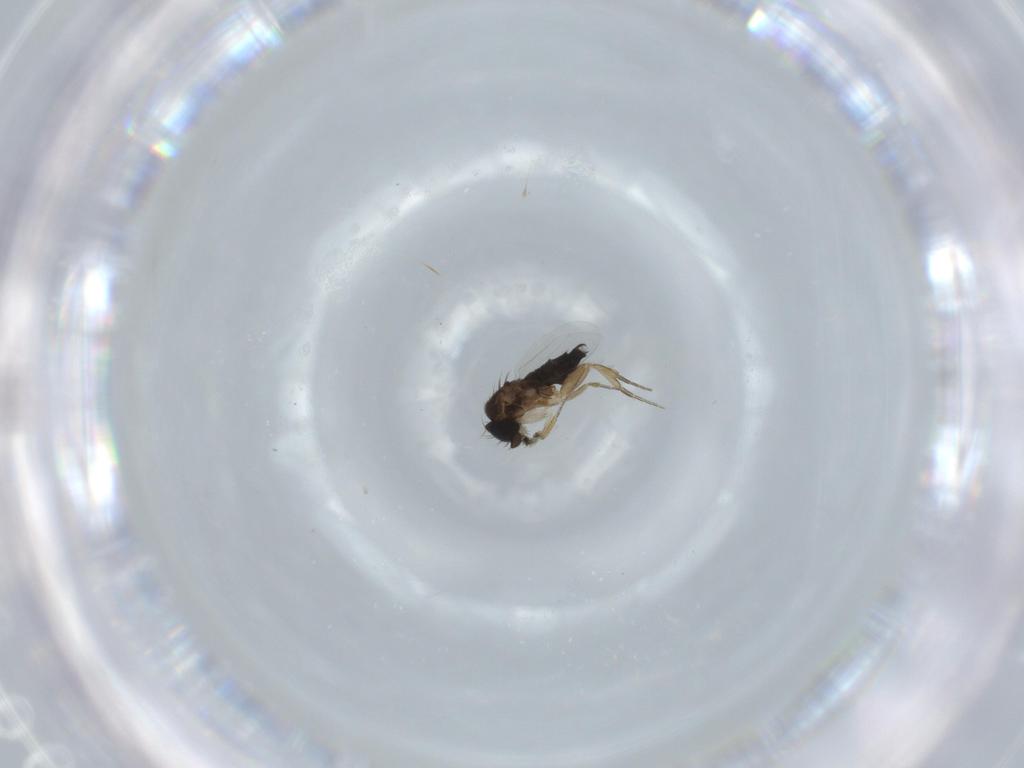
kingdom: Animalia
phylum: Arthropoda
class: Insecta
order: Diptera
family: Phoridae
